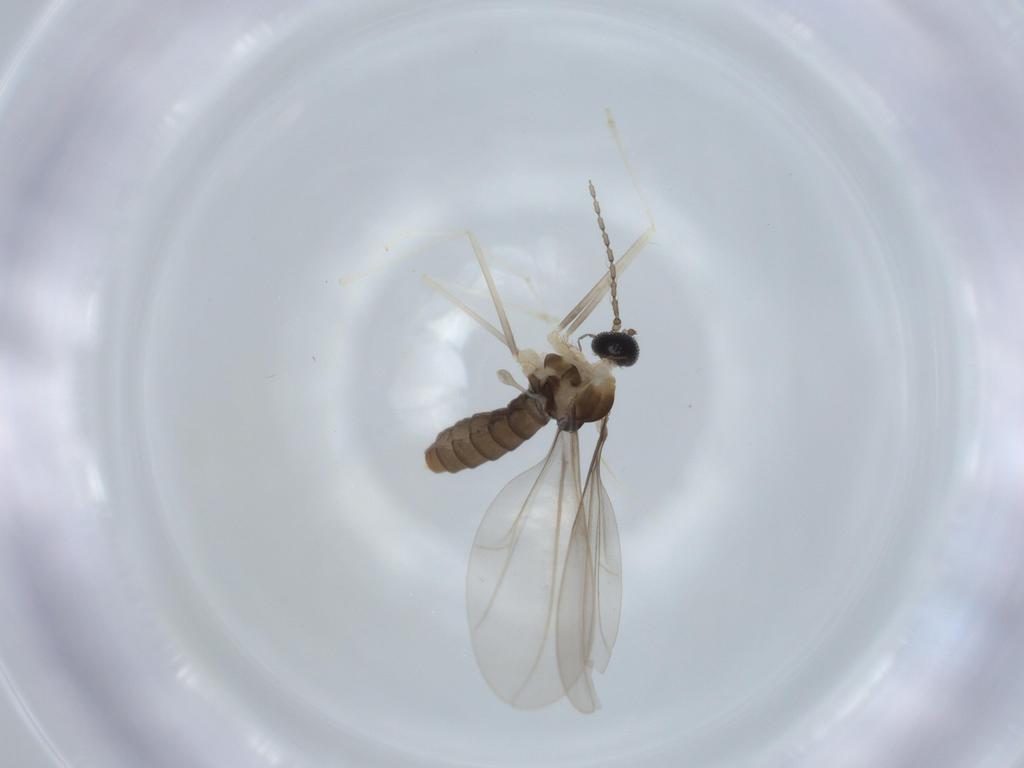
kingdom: Animalia
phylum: Arthropoda
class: Insecta
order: Diptera
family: Cecidomyiidae
